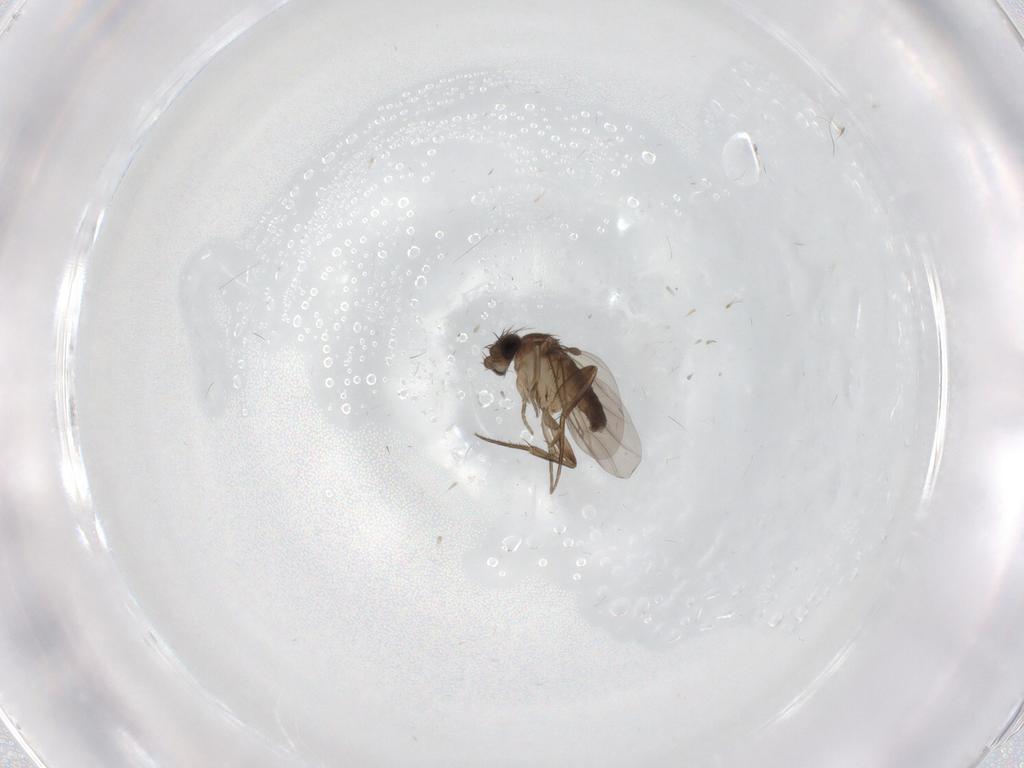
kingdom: Animalia
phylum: Arthropoda
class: Insecta
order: Diptera
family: Phoridae
